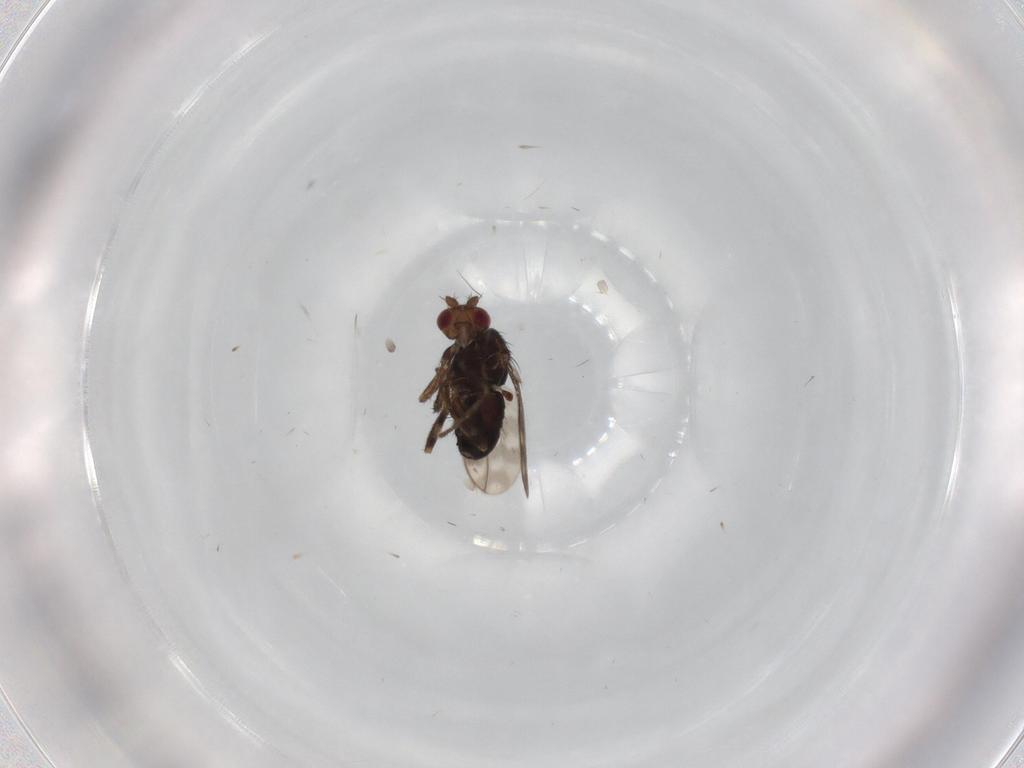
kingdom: Animalia
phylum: Arthropoda
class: Insecta
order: Diptera
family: Sphaeroceridae
